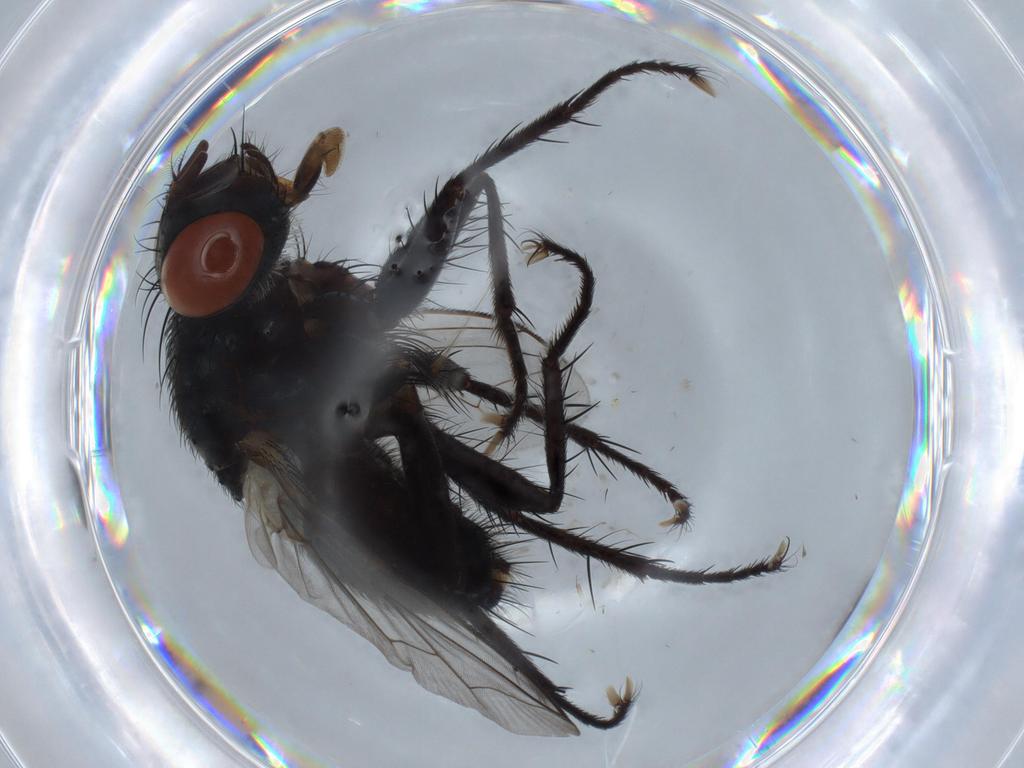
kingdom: Animalia
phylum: Arthropoda
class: Insecta
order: Diptera
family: Sarcophagidae
